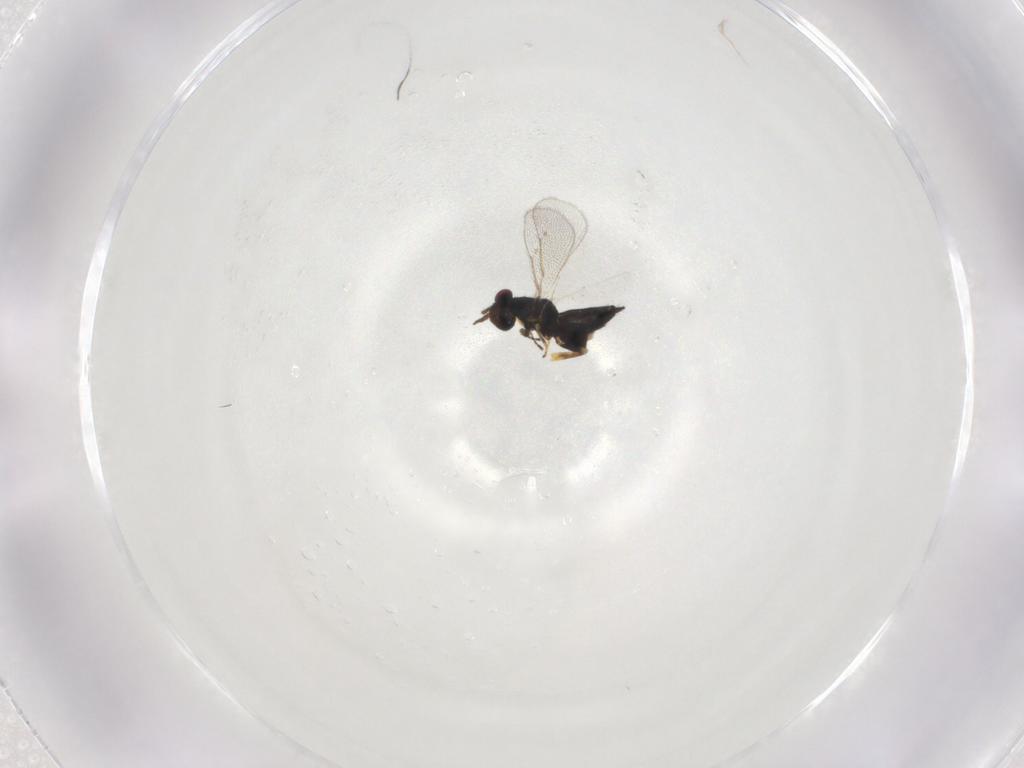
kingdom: Animalia
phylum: Arthropoda
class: Insecta
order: Hymenoptera
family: Eulophidae
